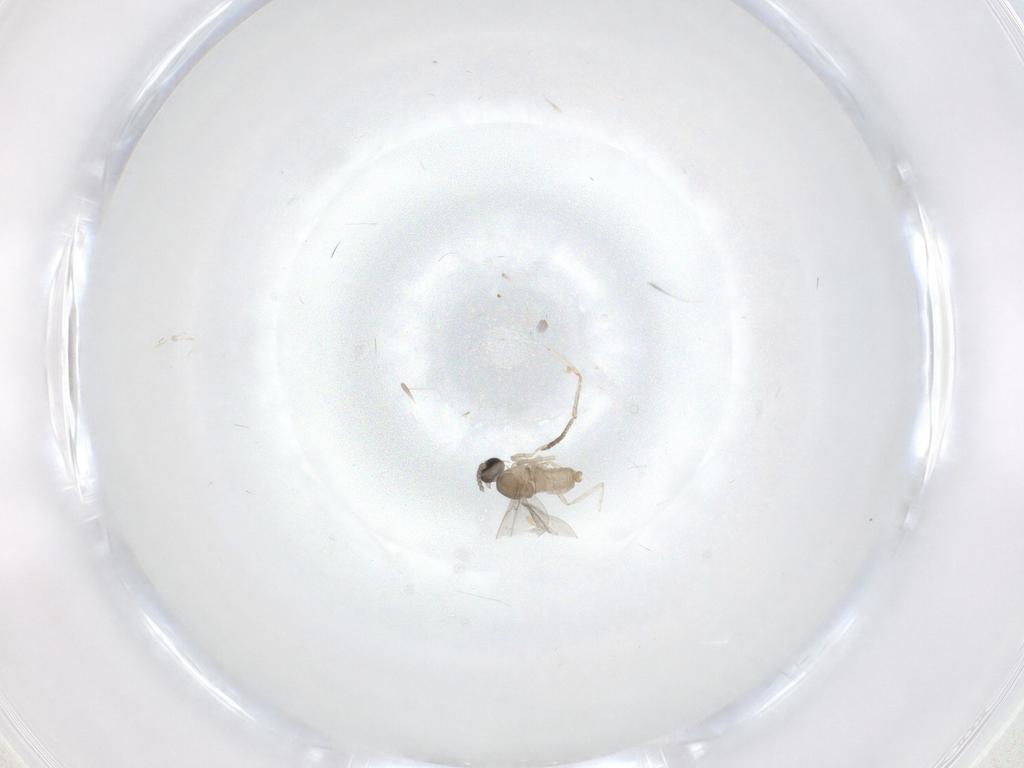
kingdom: Animalia
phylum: Arthropoda
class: Insecta
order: Diptera
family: Cecidomyiidae
